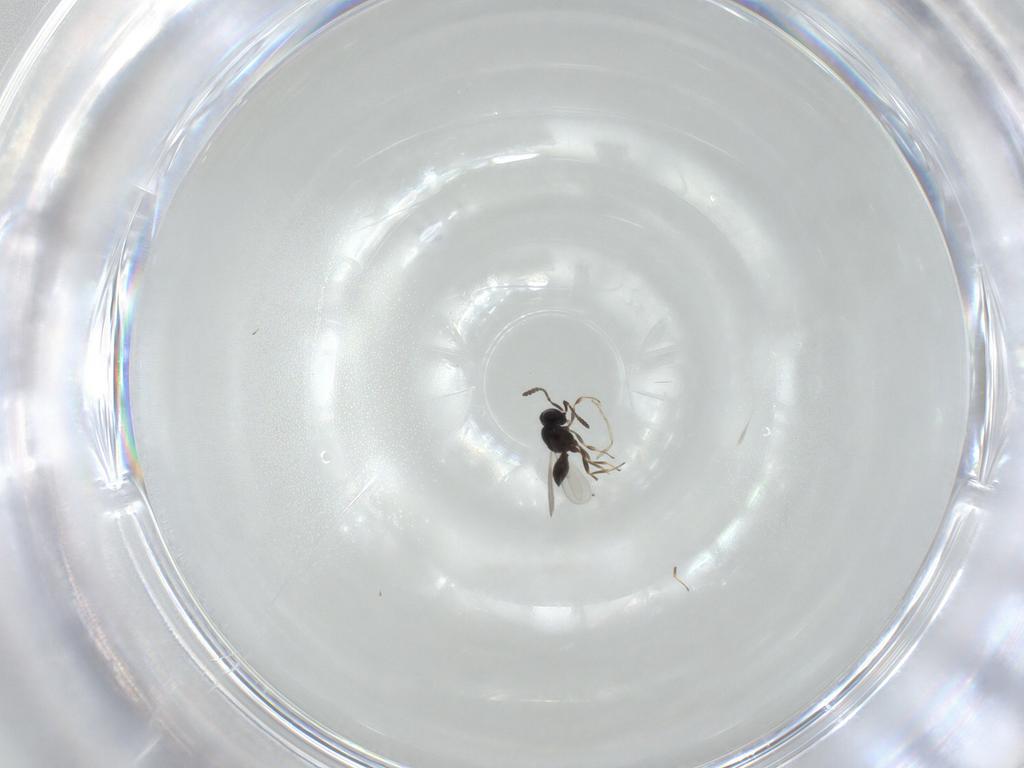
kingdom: Animalia
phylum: Arthropoda
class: Insecta
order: Hymenoptera
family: Scelionidae
